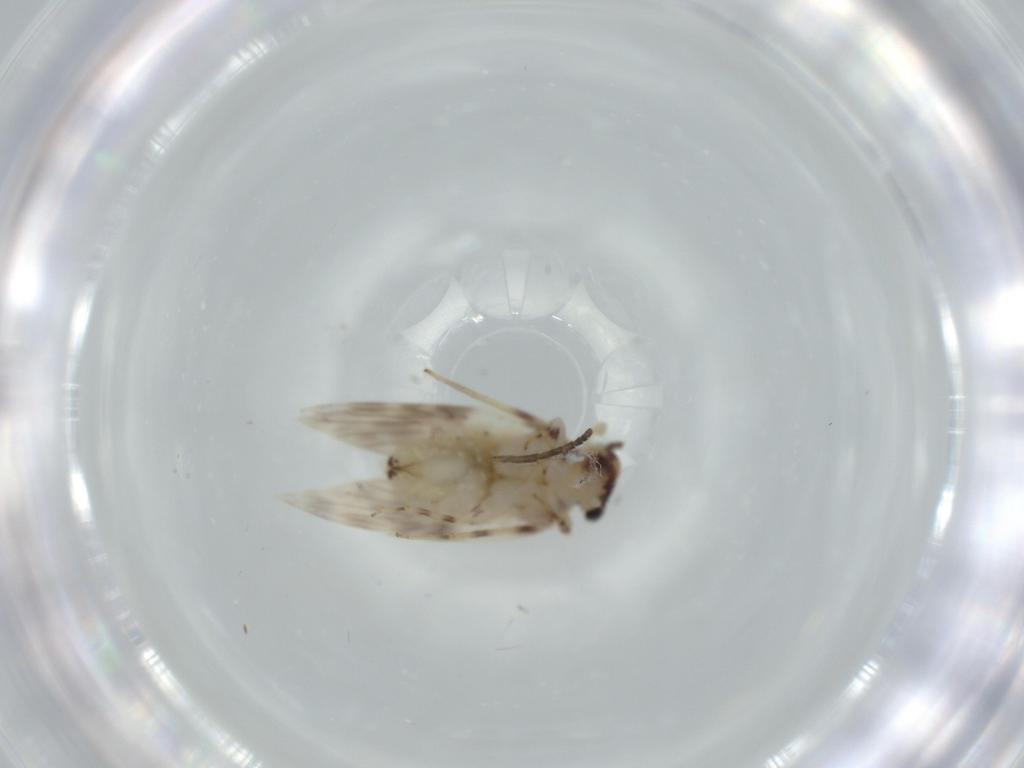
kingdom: Animalia
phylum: Arthropoda
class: Insecta
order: Psocodea
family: Lepidopsocidae
